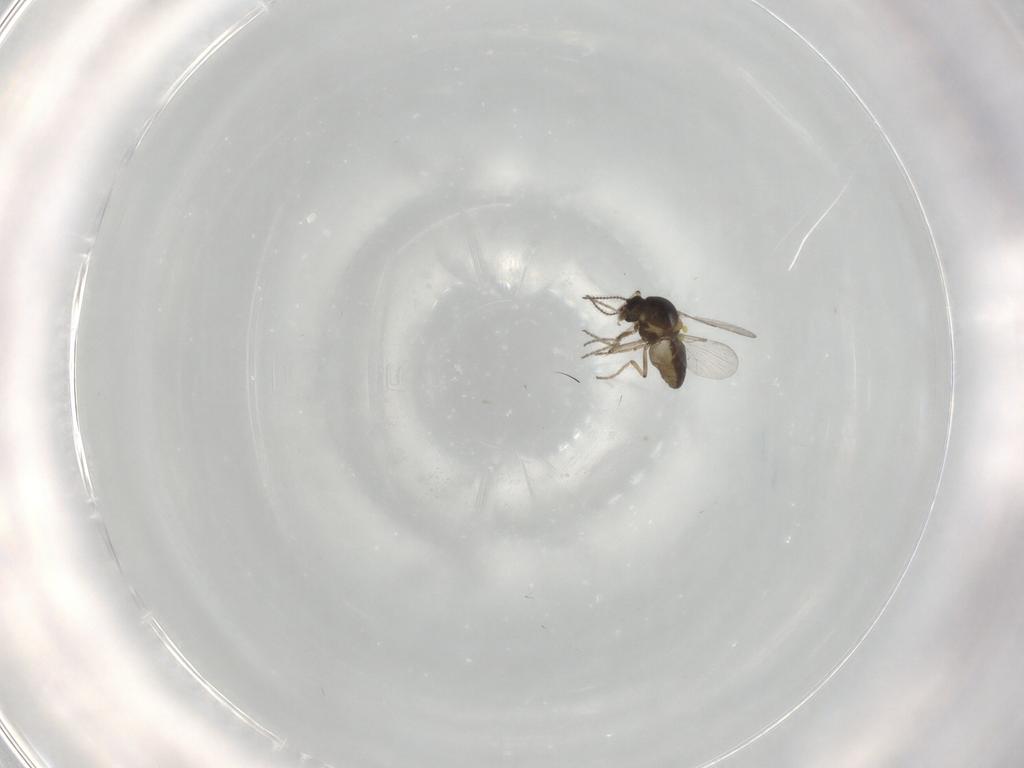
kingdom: Animalia
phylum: Arthropoda
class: Insecta
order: Diptera
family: Ceratopogonidae
